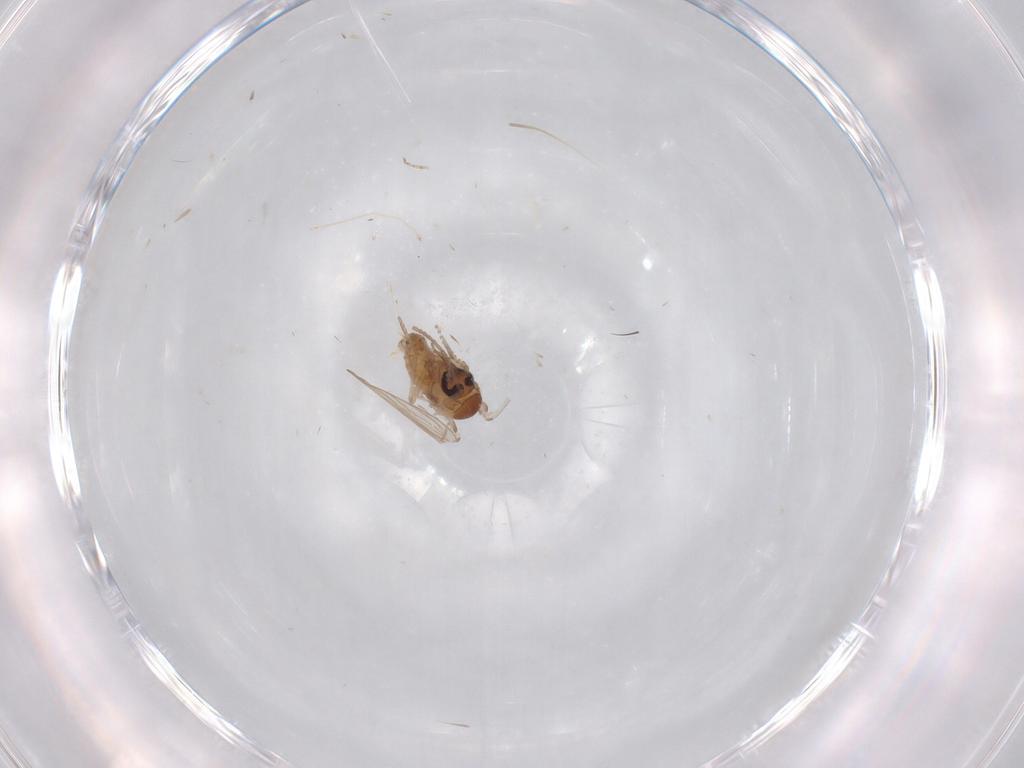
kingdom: Animalia
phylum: Arthropoda
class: Insecta
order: Diptera
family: Psychodidae
